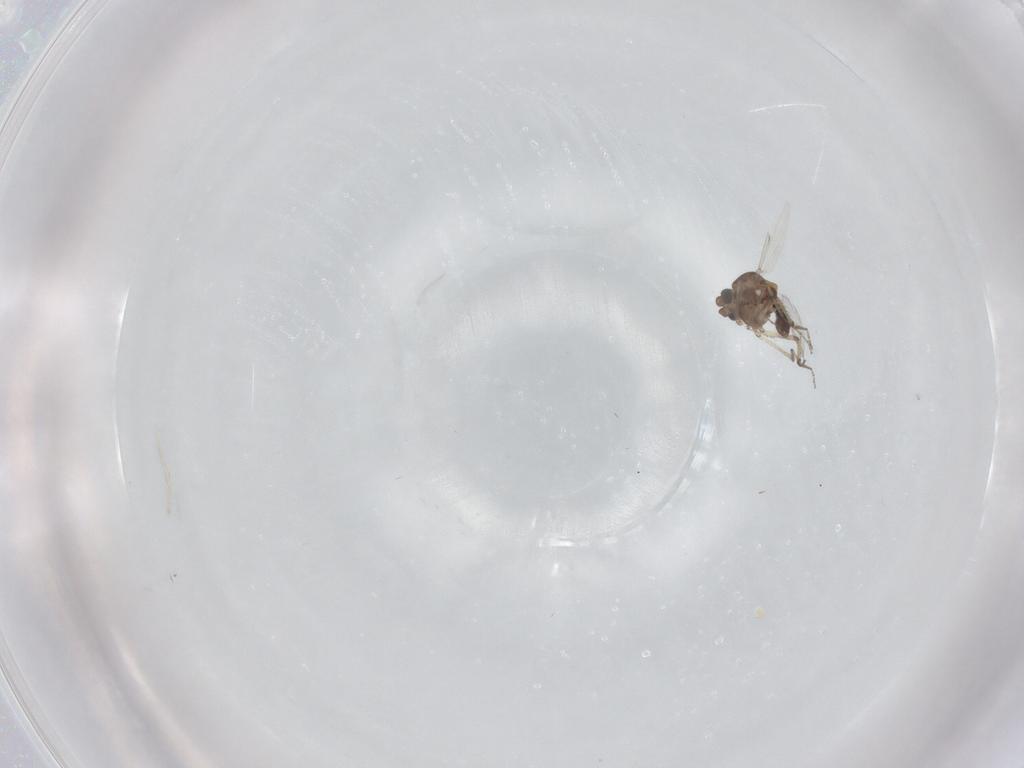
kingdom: Animalia
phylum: Arthropoda
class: Insecta
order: Diptera
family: Ceratopogonidae
